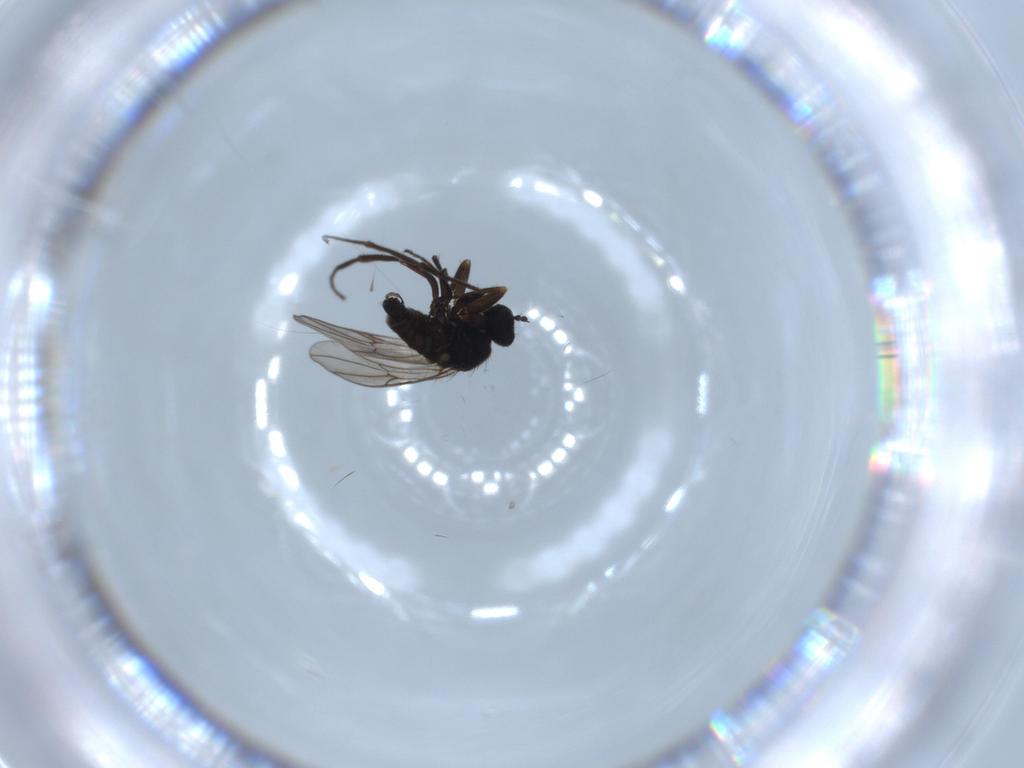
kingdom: Animalia
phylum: Arthropoda
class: Insecta
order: Diptera
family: Hybotidae
